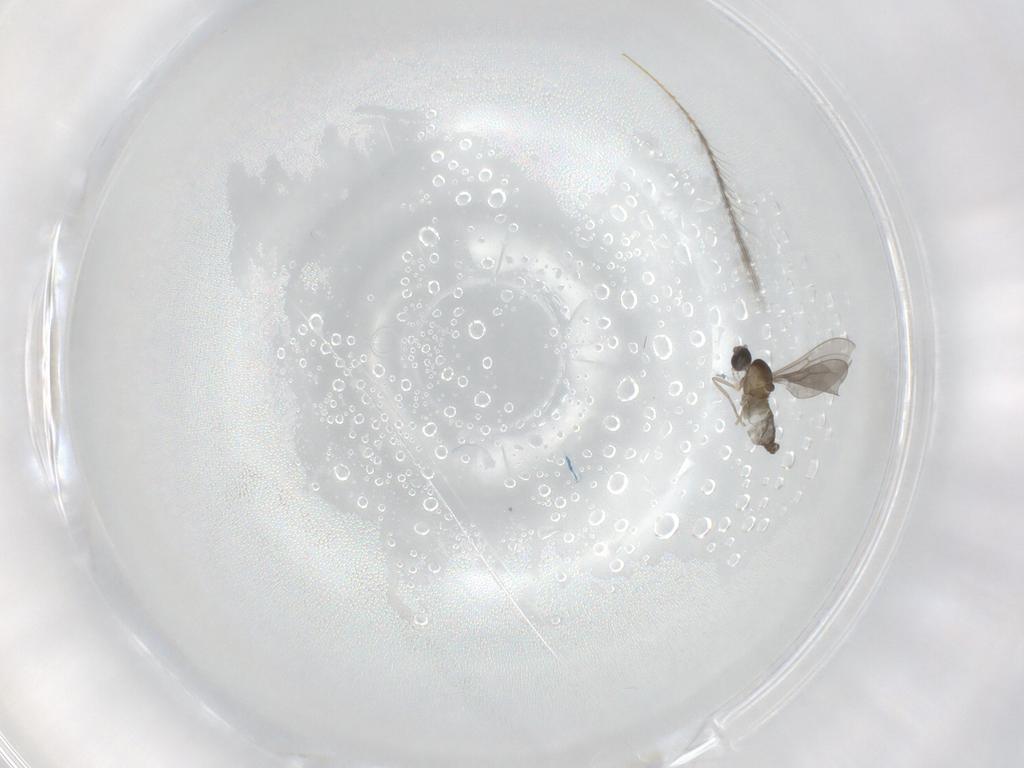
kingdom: Animalia
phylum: Arthropoda
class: Insecta
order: Diptera
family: Cecidomyiidae
